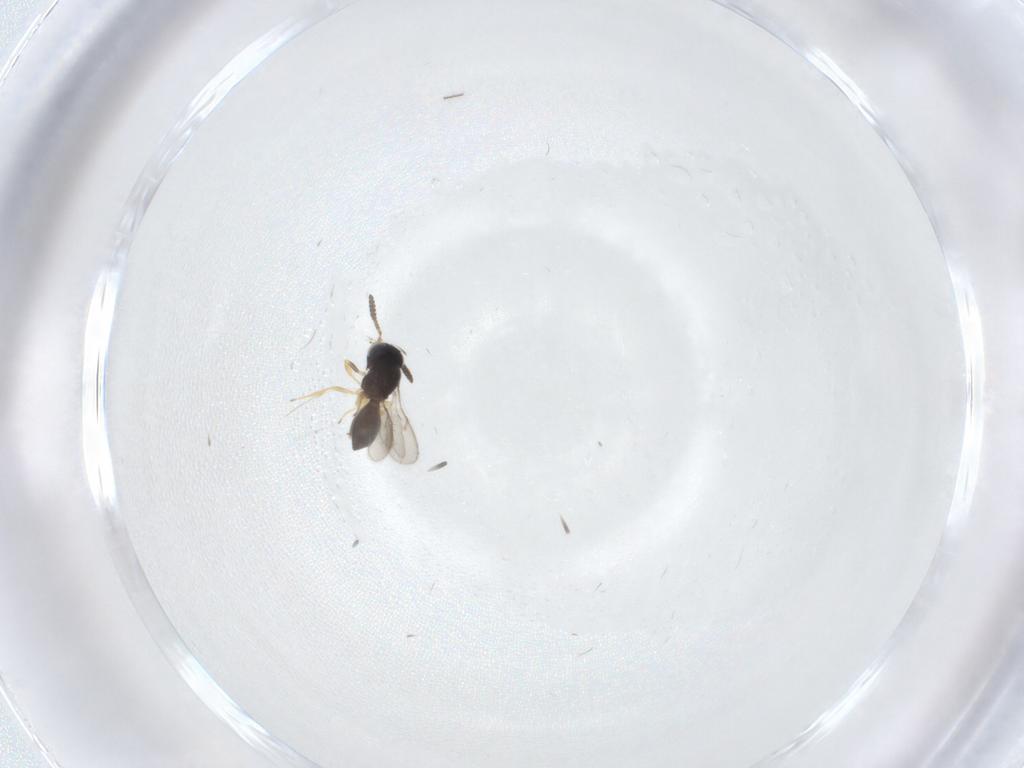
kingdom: Animalia
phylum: Arthropoda
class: Insecta
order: Hymenoptera
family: Scelionidae
